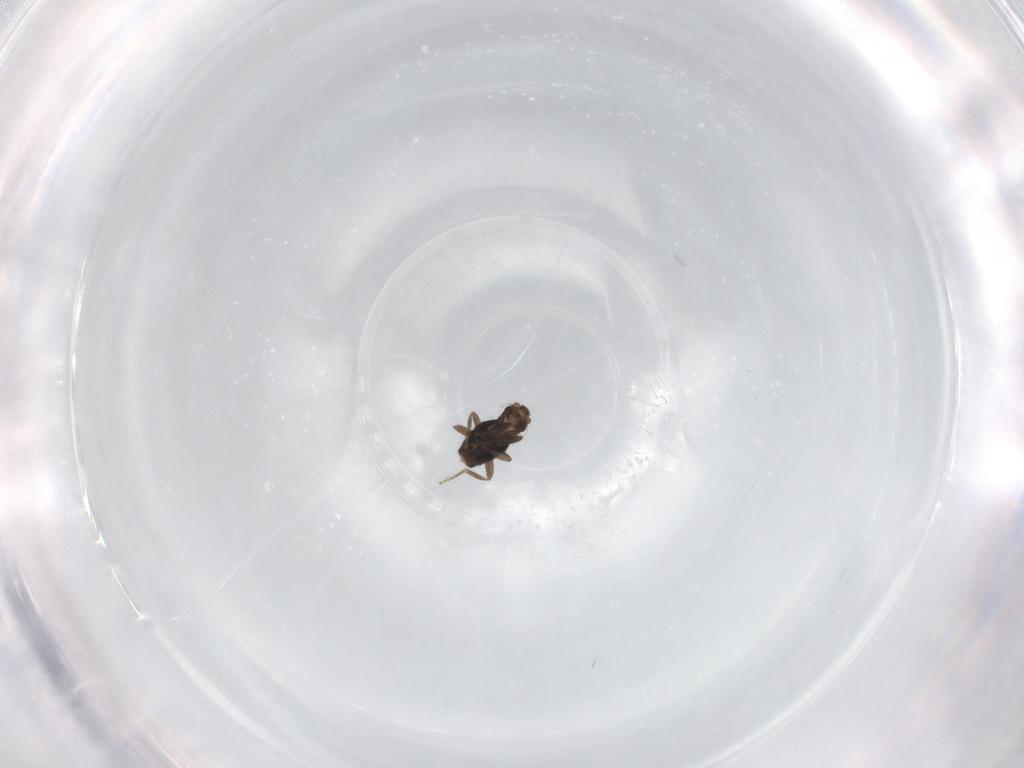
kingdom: Animalia
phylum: Arthropoda
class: Insecta
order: Diptera
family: Phoridae
